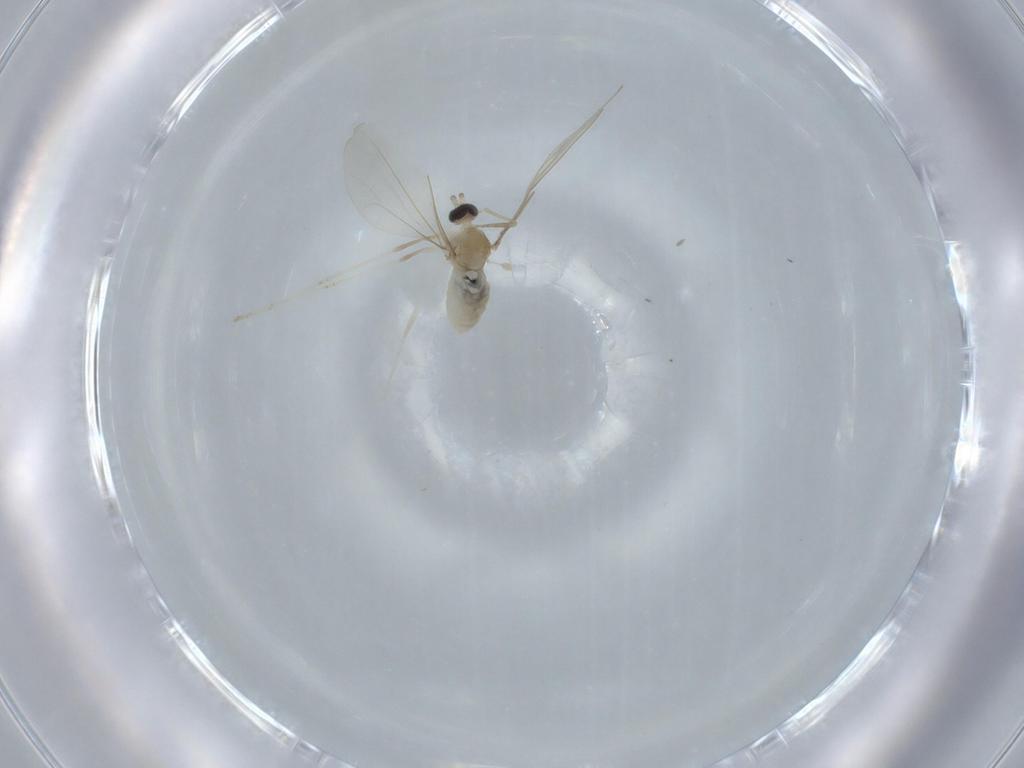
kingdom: Animalia
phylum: Arthropoda
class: Insecta
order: Diptera
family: Cecidomyiidae
